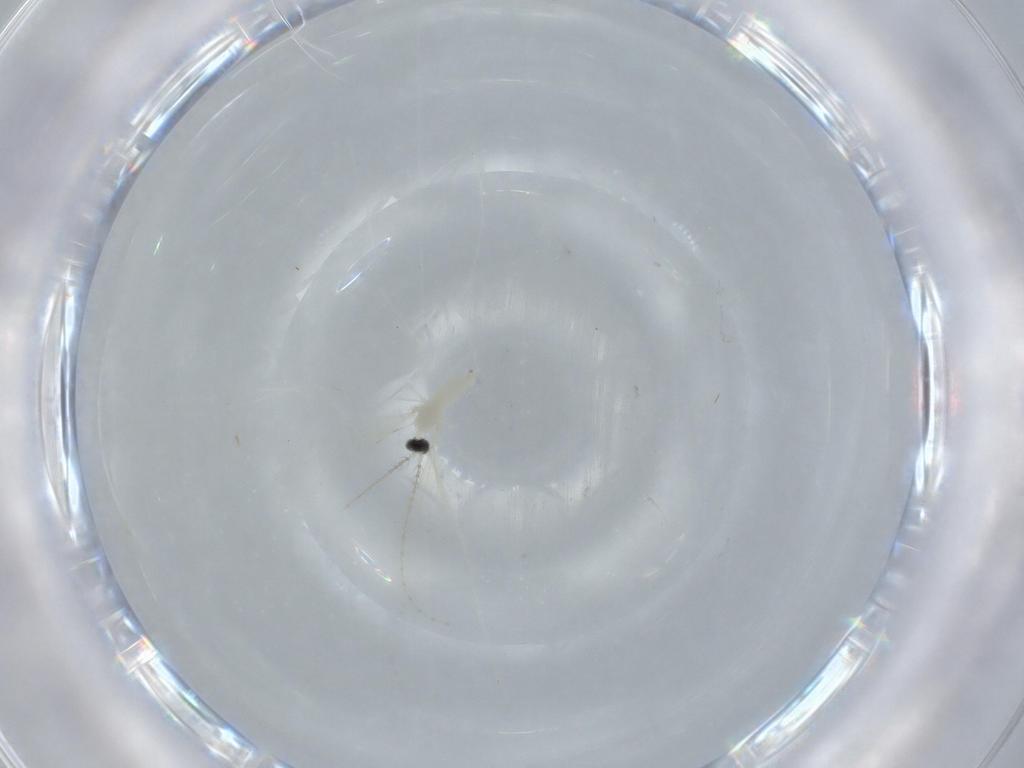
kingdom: Animalia
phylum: Arthropoda
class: Insecta
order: Diptera
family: Cecidomyiidae
